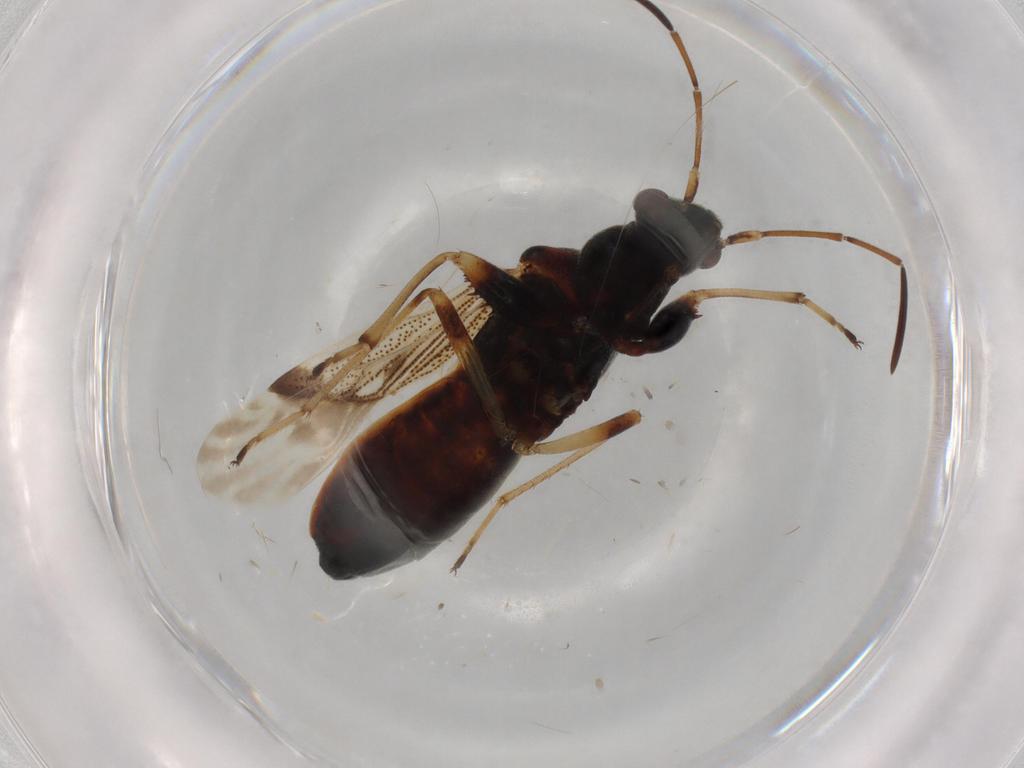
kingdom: Animalia
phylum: Arthropoda
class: Insecta
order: Hemiptera
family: Rhyparochromidae
